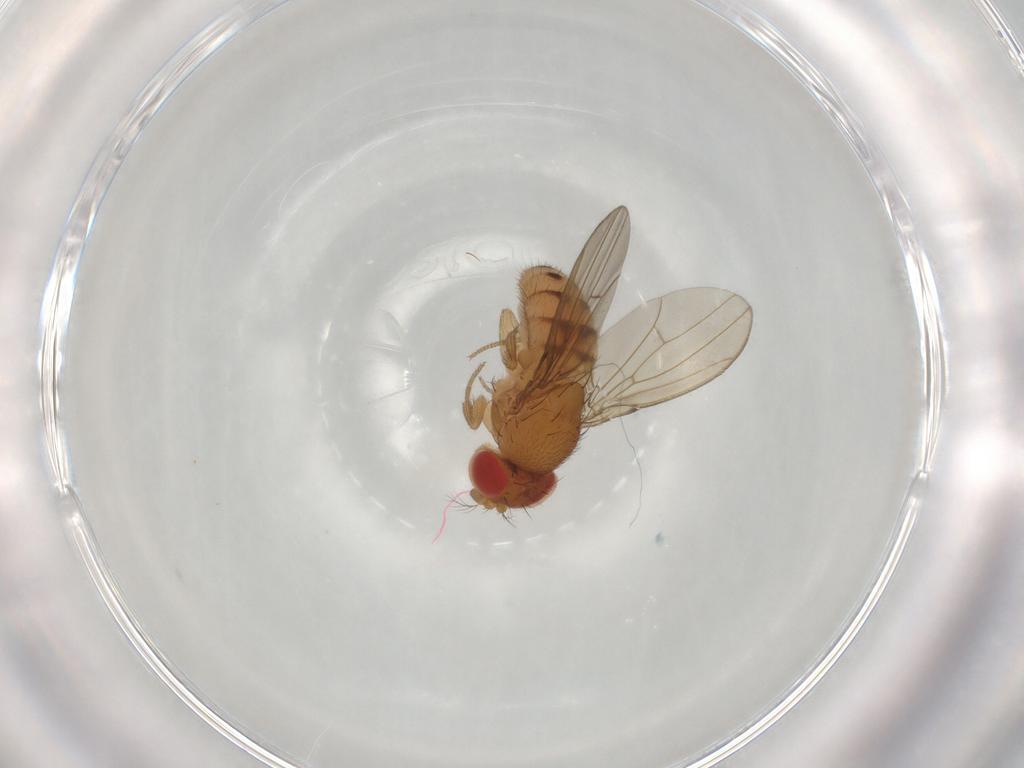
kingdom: Animalia
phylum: Arthropoda
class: Insecta
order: Diptera
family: Drosophilidae
